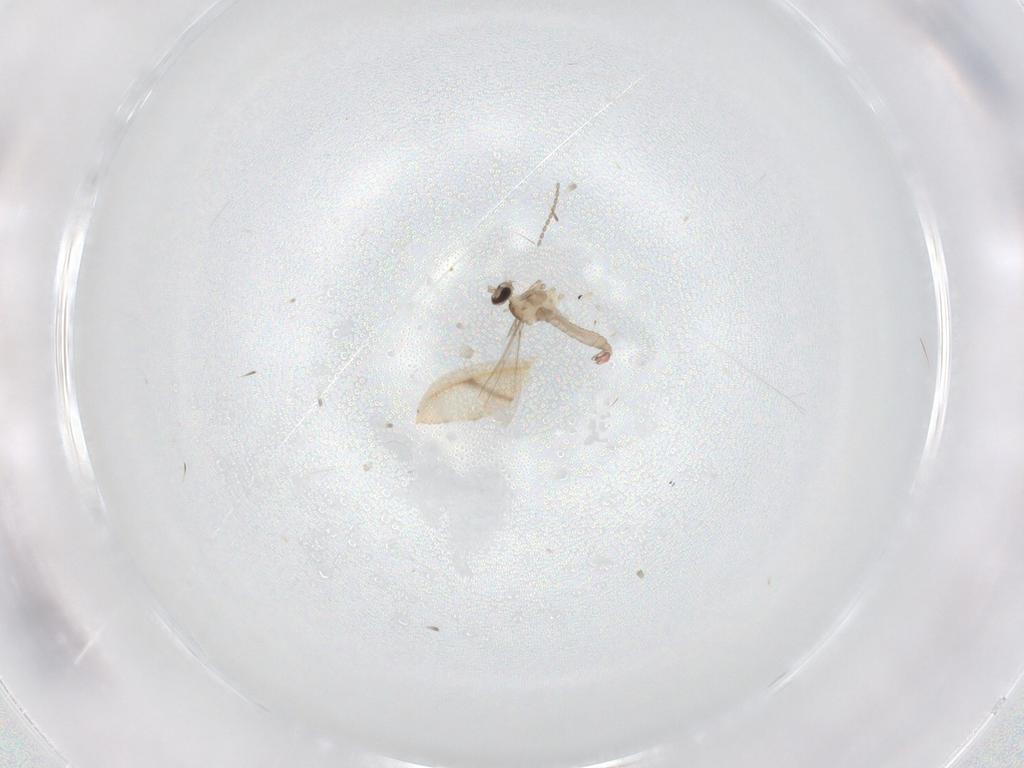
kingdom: Animalia
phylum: Arthropoda
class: Insecta
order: Diptera
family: Cecidomyiidae
